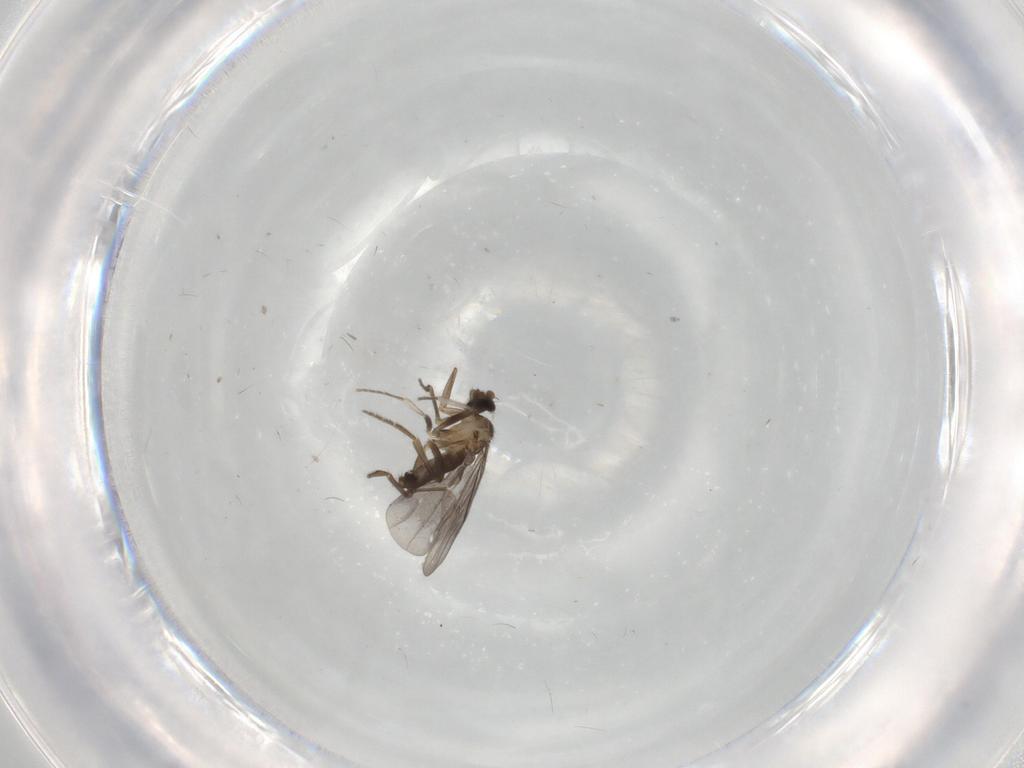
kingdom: Animalia
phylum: Arthropoda
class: Insecta
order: Diptera
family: Phoridae
